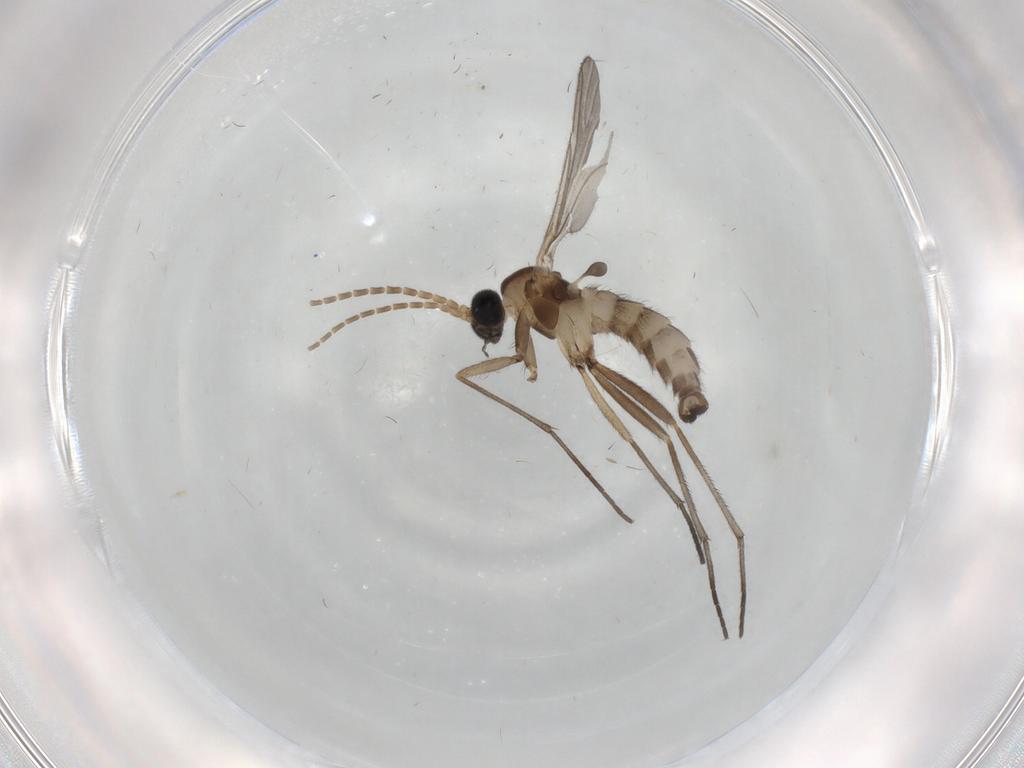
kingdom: Animalia
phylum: Arthropoda
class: Insecta
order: Diptera
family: Sciaridae
